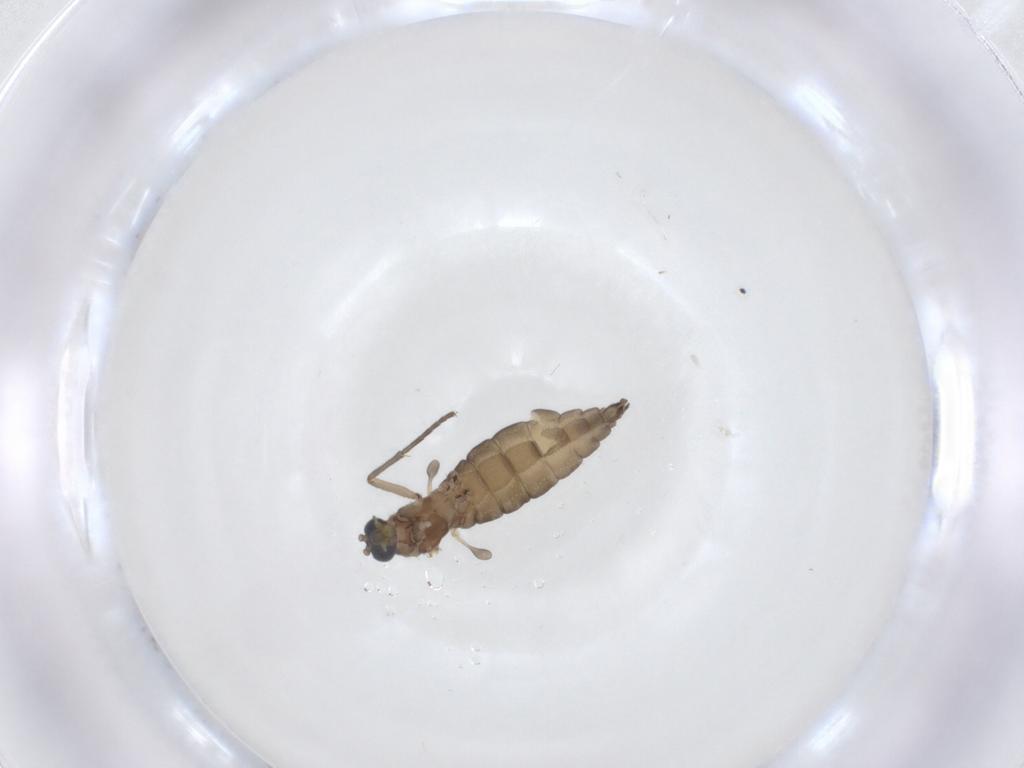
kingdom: Animalia
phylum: Arthropoda
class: Insecta
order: Diptera
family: Sciaridae
